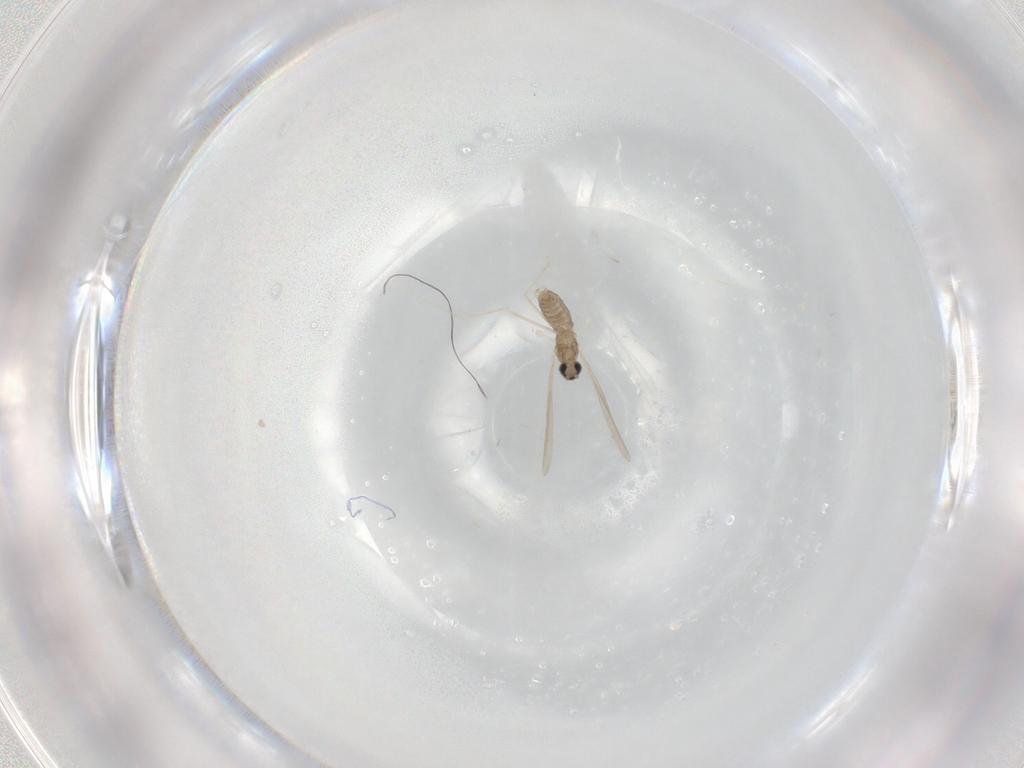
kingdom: Animalia
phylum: Arthropoda
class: Insecta
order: Diptera
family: Cecidomyiidae
